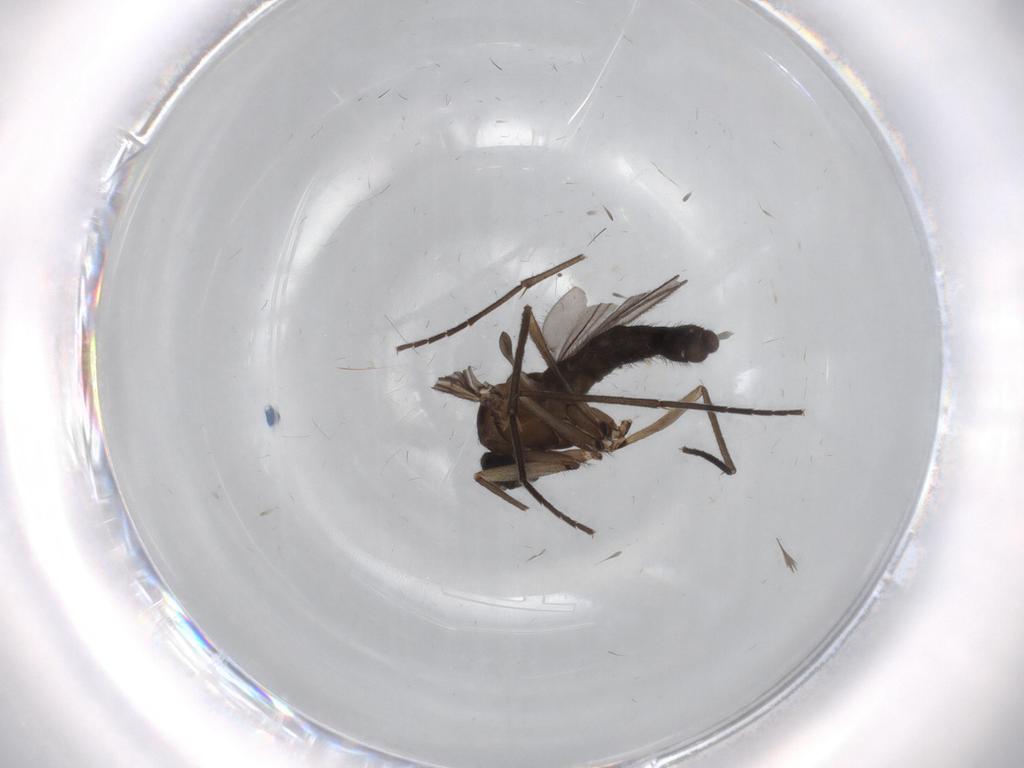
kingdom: Animalia
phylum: Arthropoda
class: Insecta
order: Diptera
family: Sciaridae
